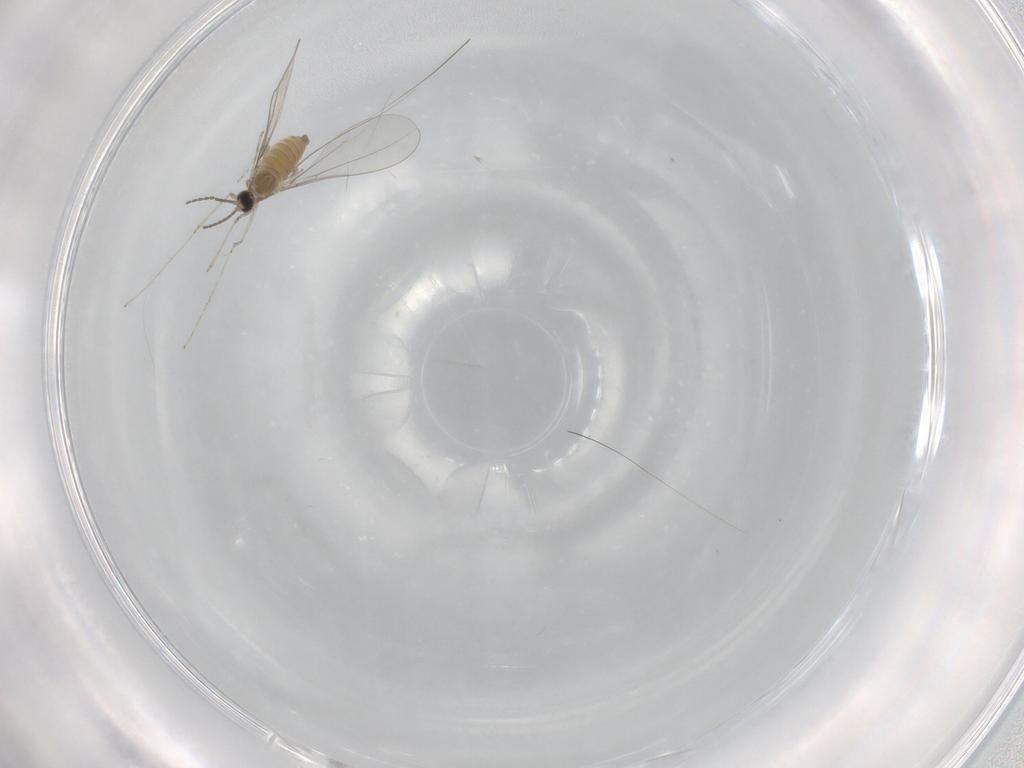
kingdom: Animalia
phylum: Arthropoda
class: Insecta
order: Diptera
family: Cecidomyiidae
